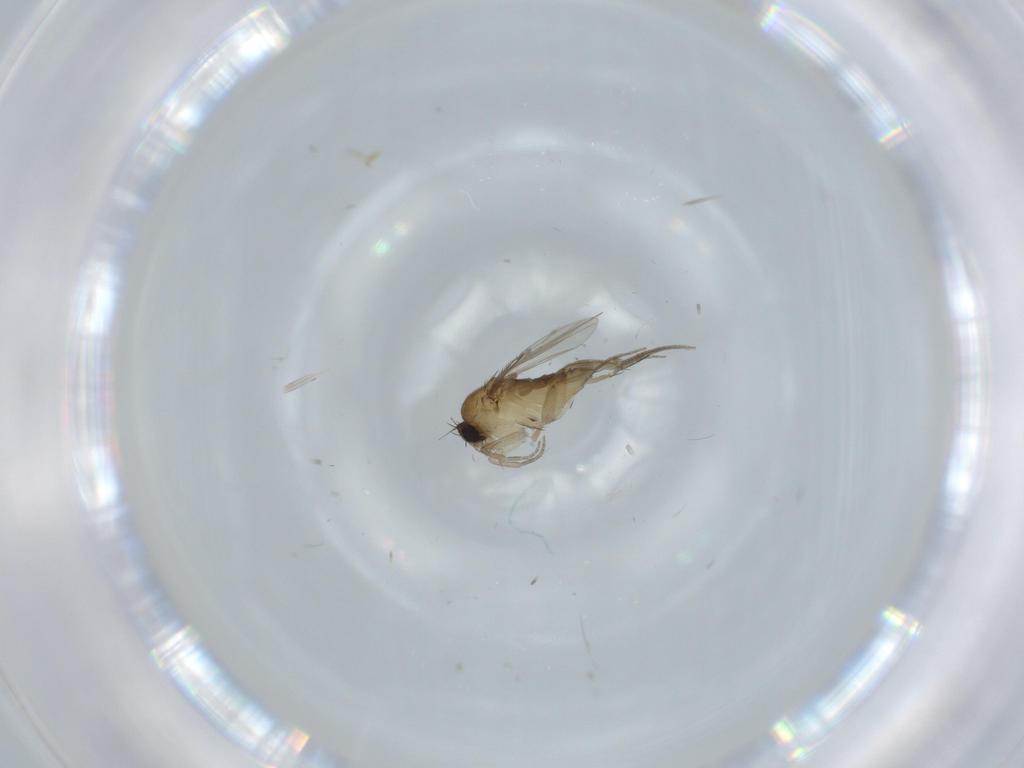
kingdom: Animalia
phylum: Arthropoda
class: Insecta
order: Diptera
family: Phoridae
